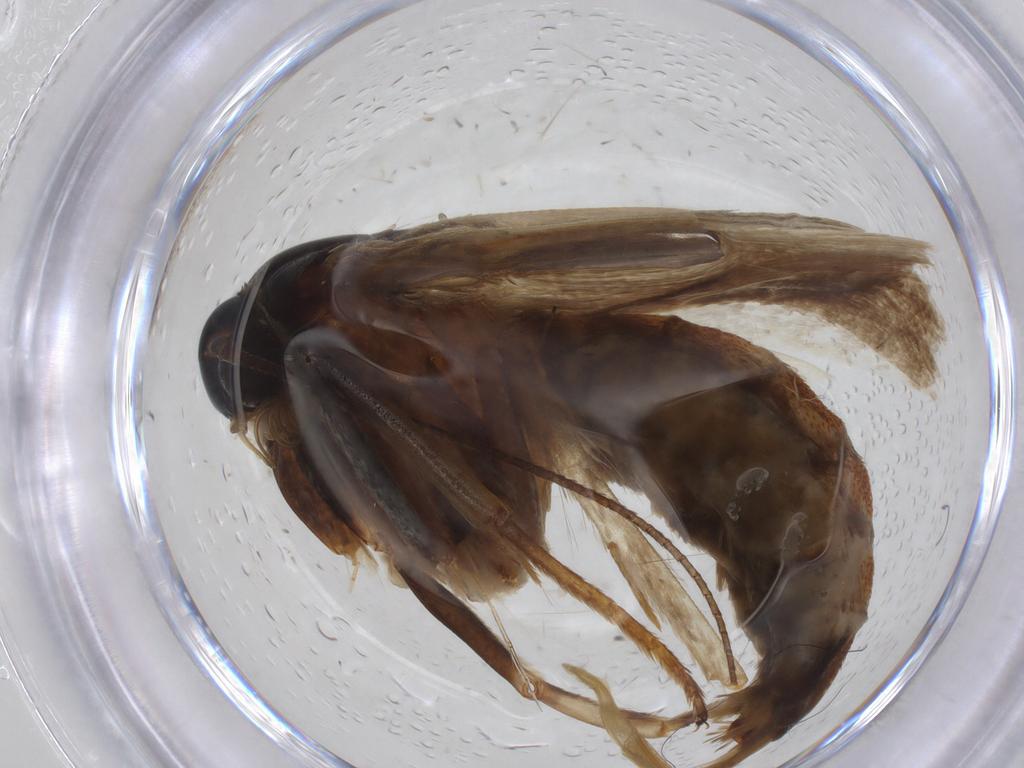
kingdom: Animalia
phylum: Arthropoda
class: Insecta
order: Lepidoptera
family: Oecophoridae
